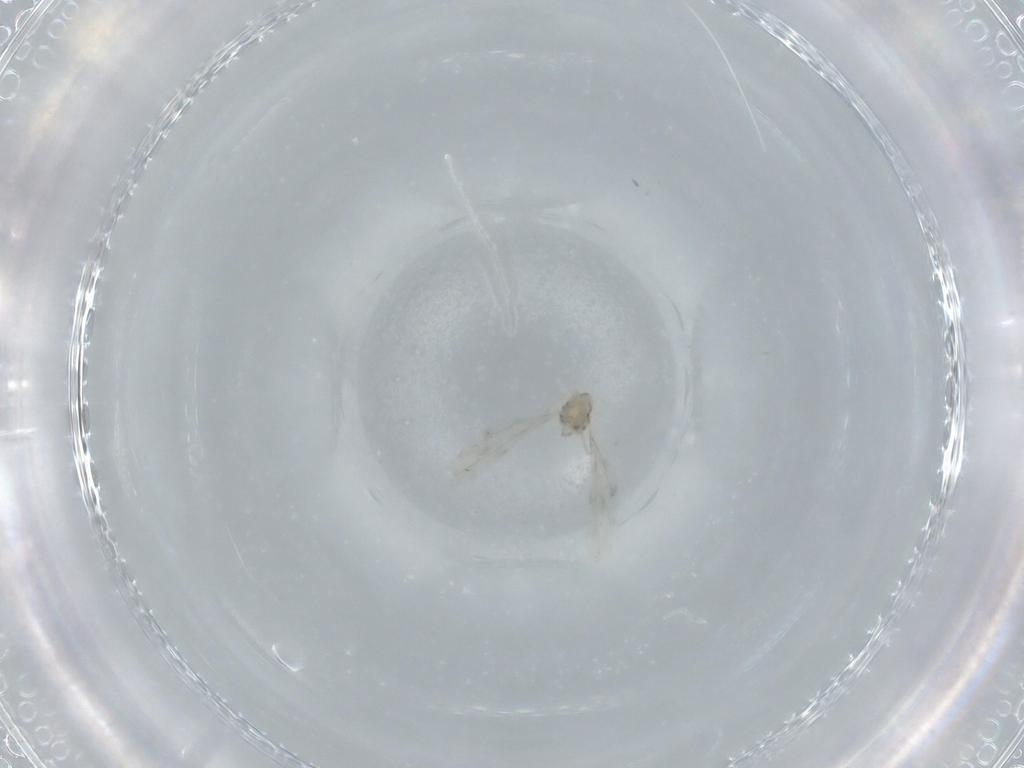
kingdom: Animalia
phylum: Arthropoda
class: Insecta
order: Diptera
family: Cecidomyiidae
